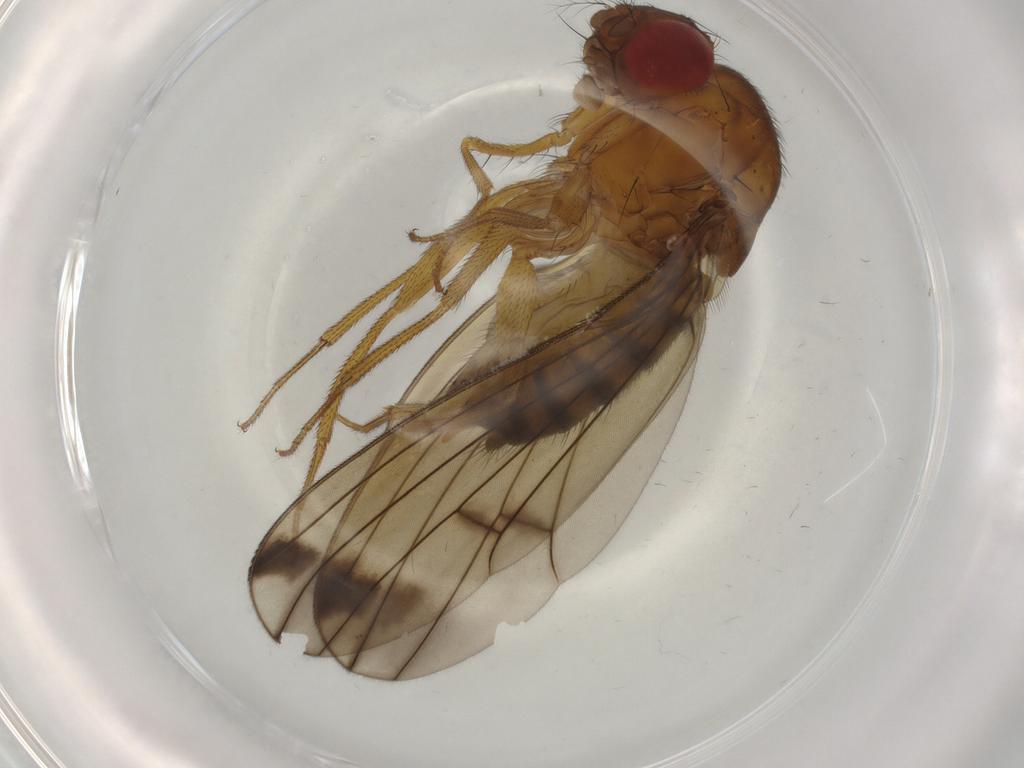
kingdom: Animalia
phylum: Arthropoda
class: Insecta
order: Diptera
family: Drosophilidae
